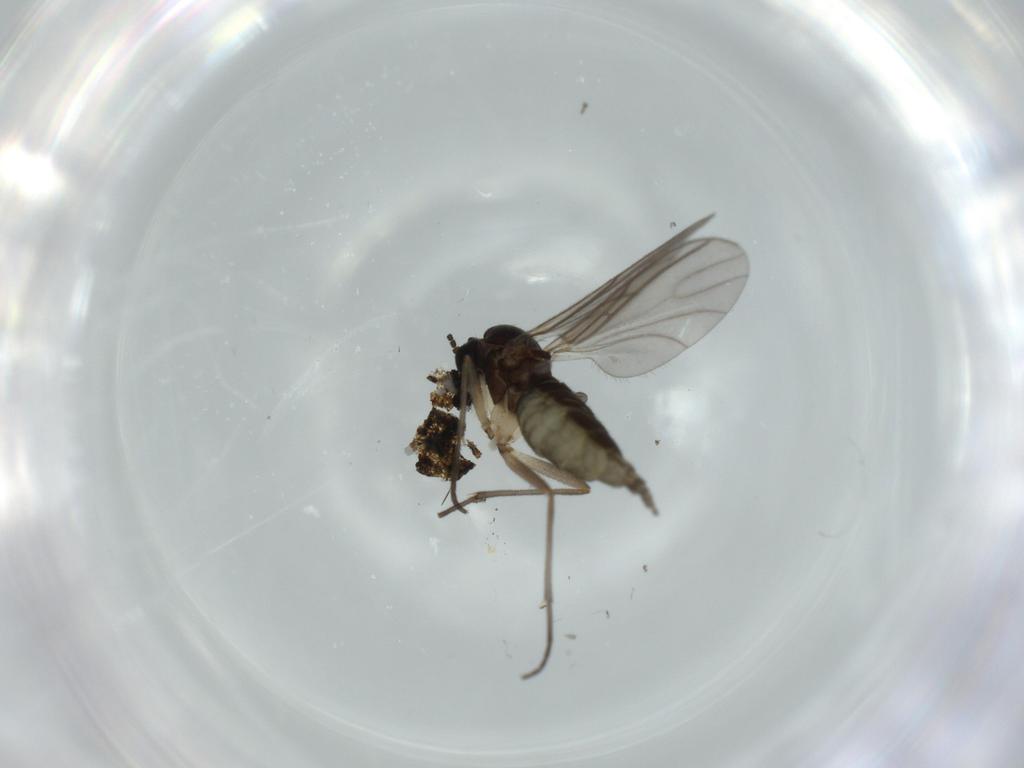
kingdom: Animalia
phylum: Arthropoda
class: Insecta
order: Diptera
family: Sciaridae
